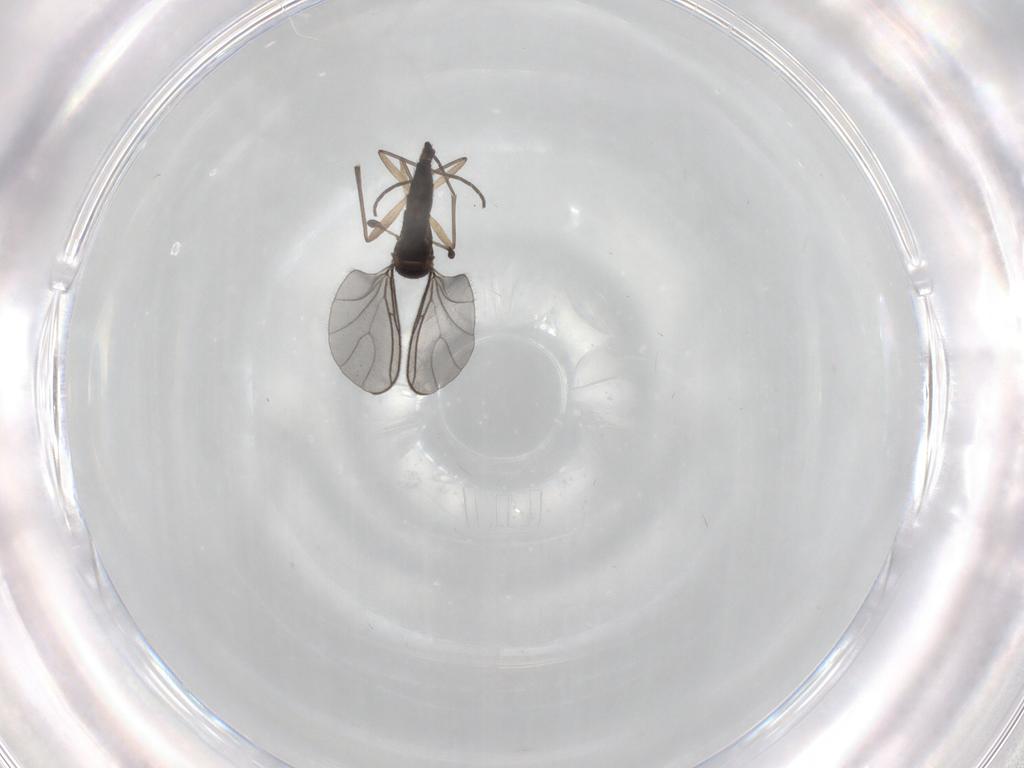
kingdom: Animalia
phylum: Arthropoda
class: Insecta
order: Diptera
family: Sciaridae
